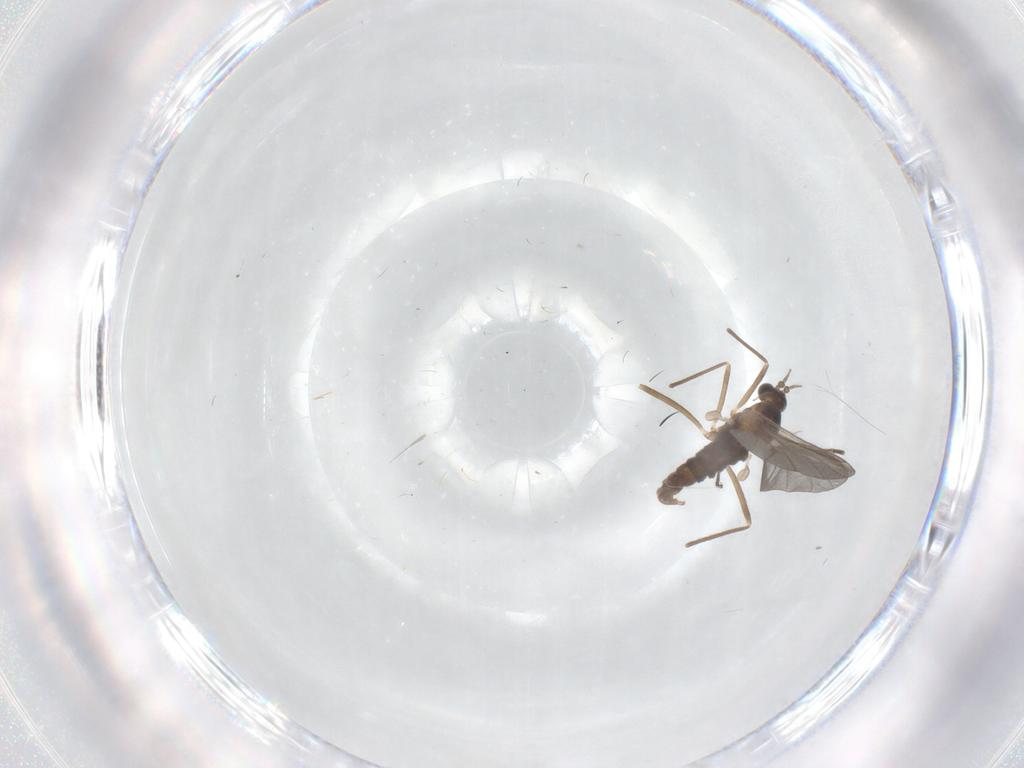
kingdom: Animalia
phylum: Arthropoda
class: Insecta
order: Diptera
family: Cecidomyiidae
